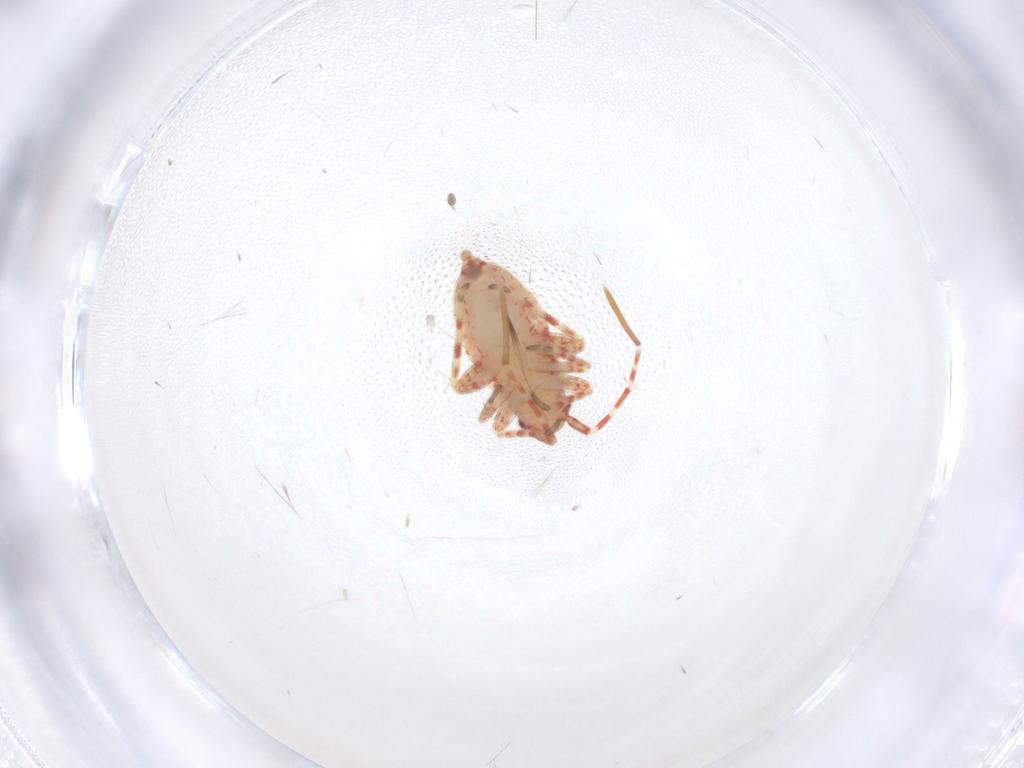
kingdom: Animalia
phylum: Arthropoda
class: Insecta
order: Hemiptera
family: Miridae
